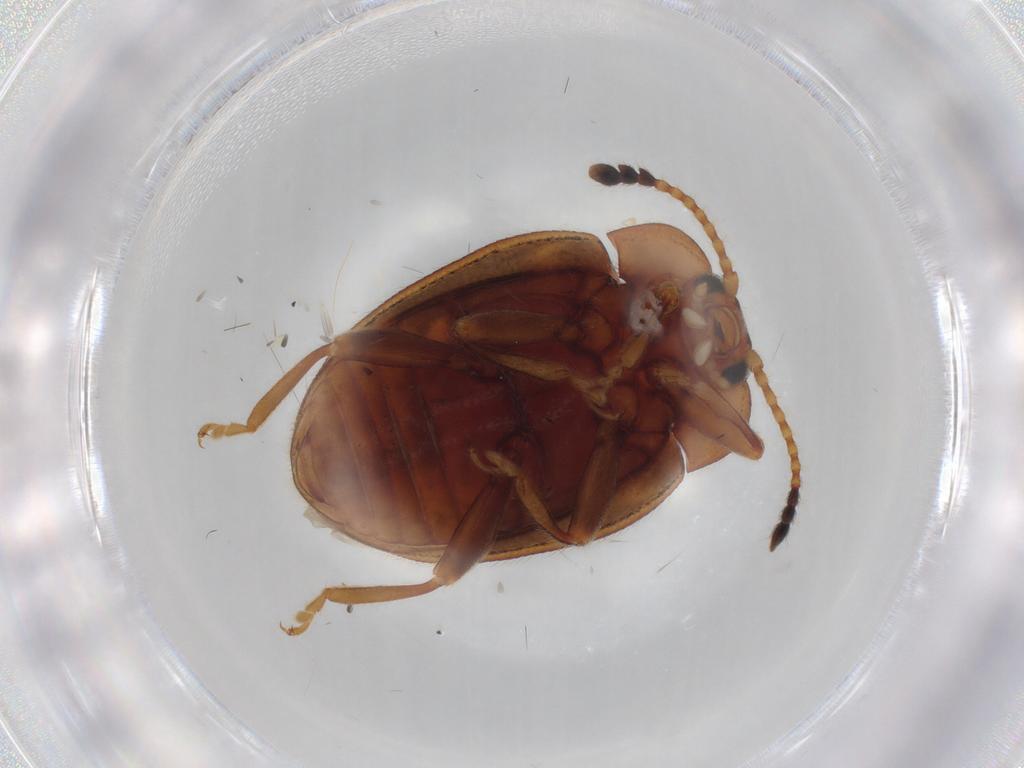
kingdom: Animalia
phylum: Arthropoda
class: Insecta
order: Coleoptera
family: Endomychidae
